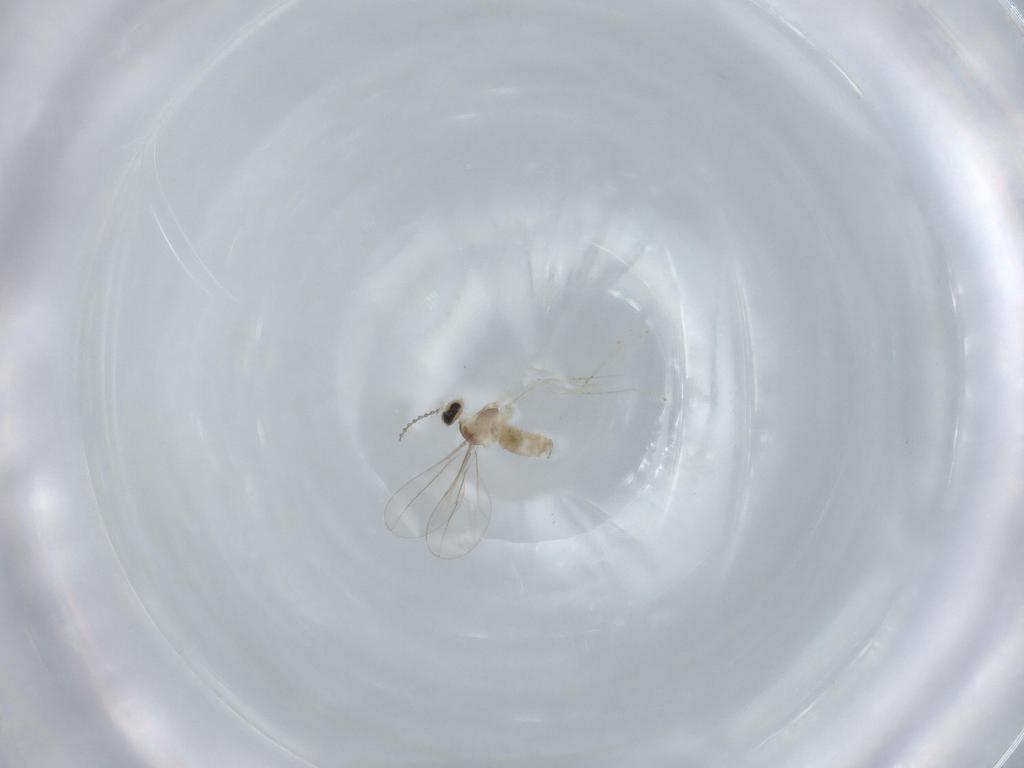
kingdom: Animalia
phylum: Arthropoda
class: Insecta
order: Diptera
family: Cecidomyiidae
